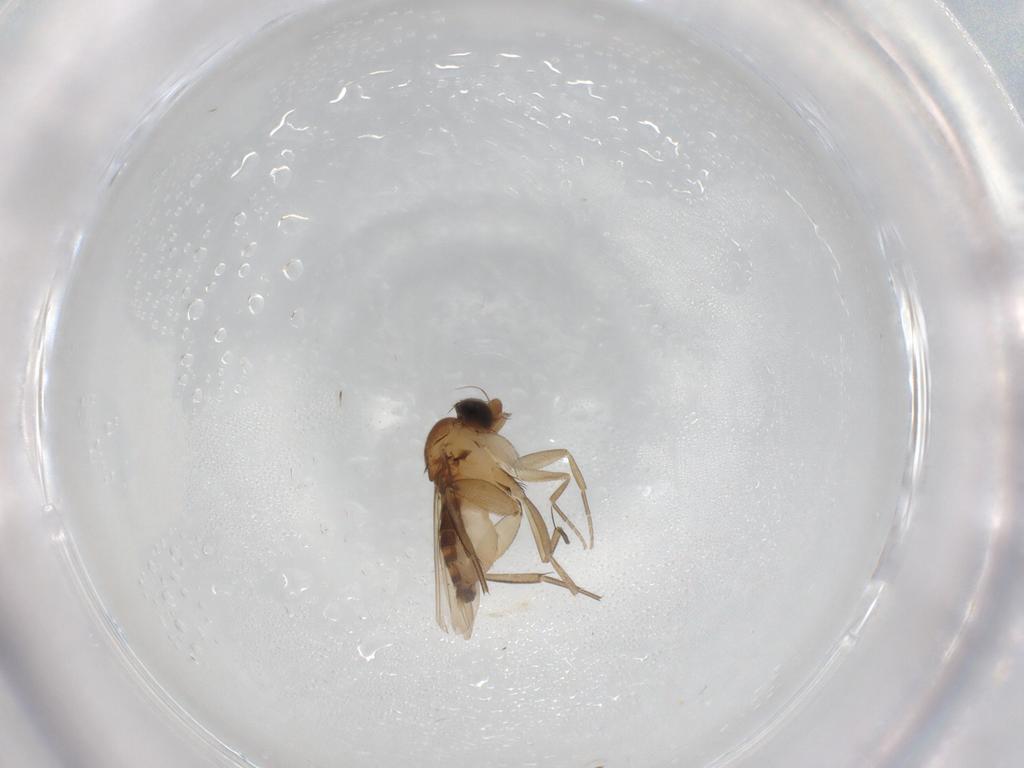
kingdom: Animalia
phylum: Arthropoda
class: Insecta
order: Diptera
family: Phoridae
